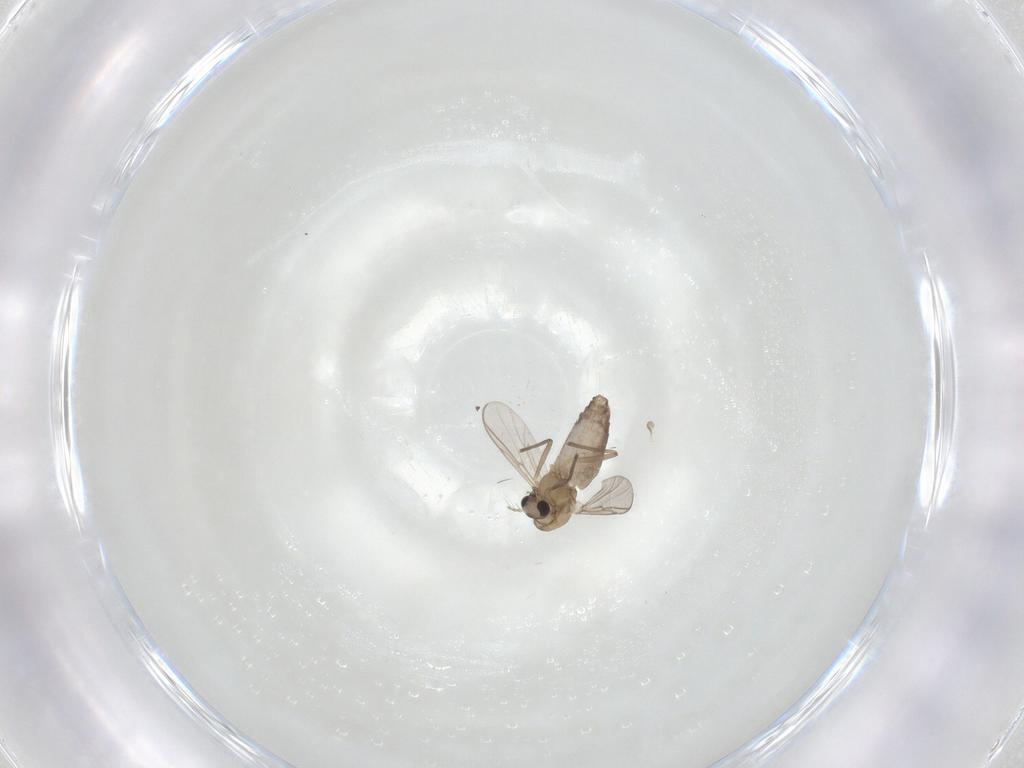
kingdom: Animalia
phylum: Arthropoda
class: Insecta
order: Diptera
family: Chironomidae
